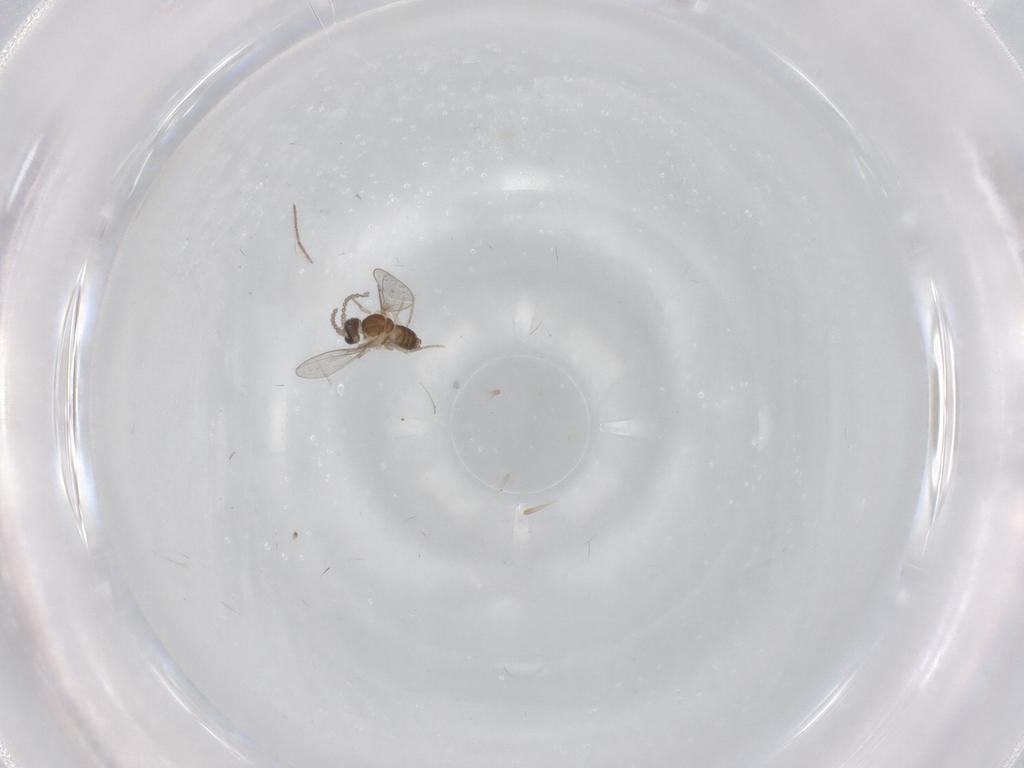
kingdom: Animalia
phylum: Arthropoda
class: Insecta
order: Diptera
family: Cecidomyiidae
